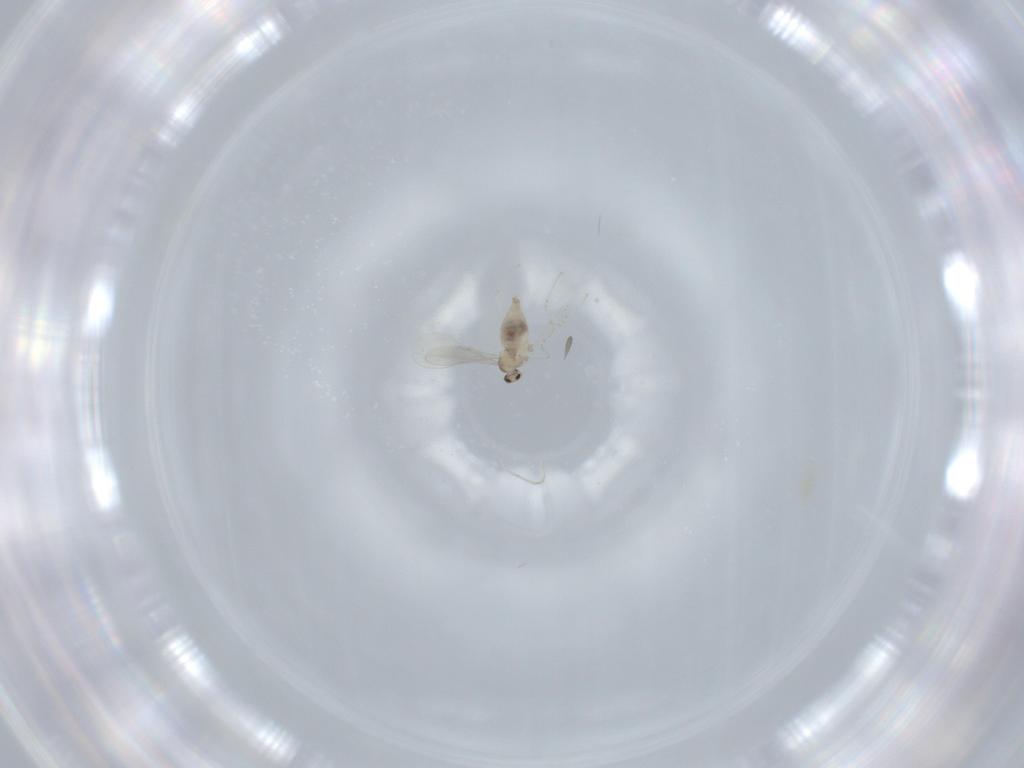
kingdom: Animalia
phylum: Arthropoda
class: Insecta
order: Diptera
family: Cecidomyiidae
